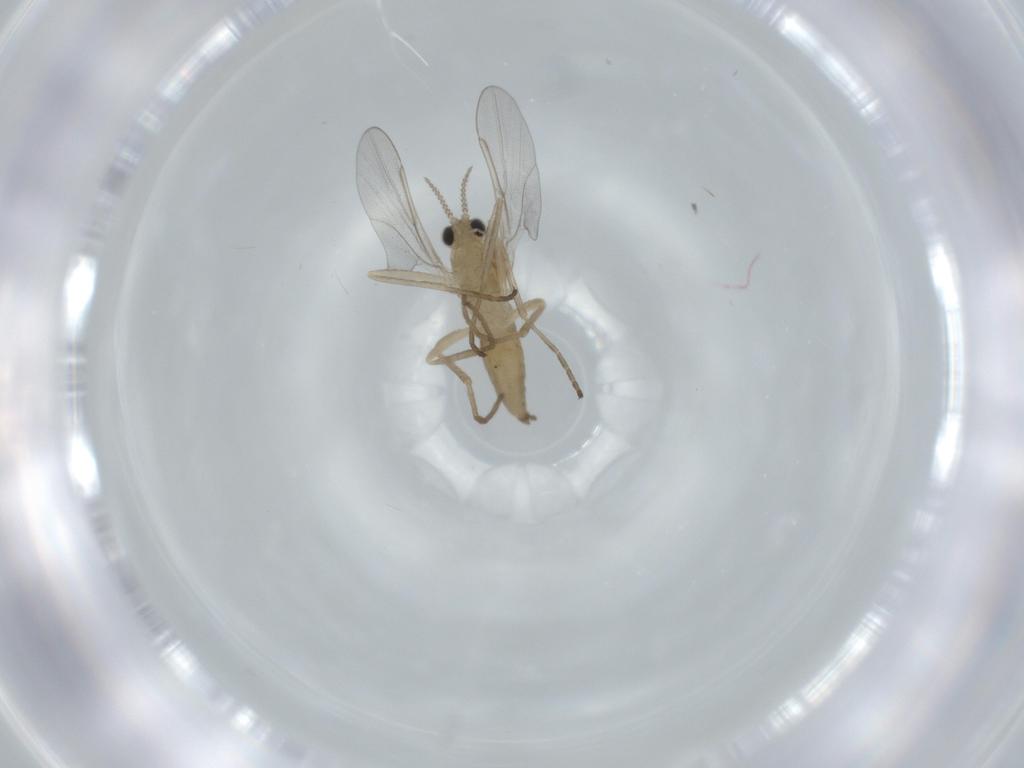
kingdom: Animalia
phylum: Arthropoda
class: Insecta
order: Diptera
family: Cecidomyiidae
